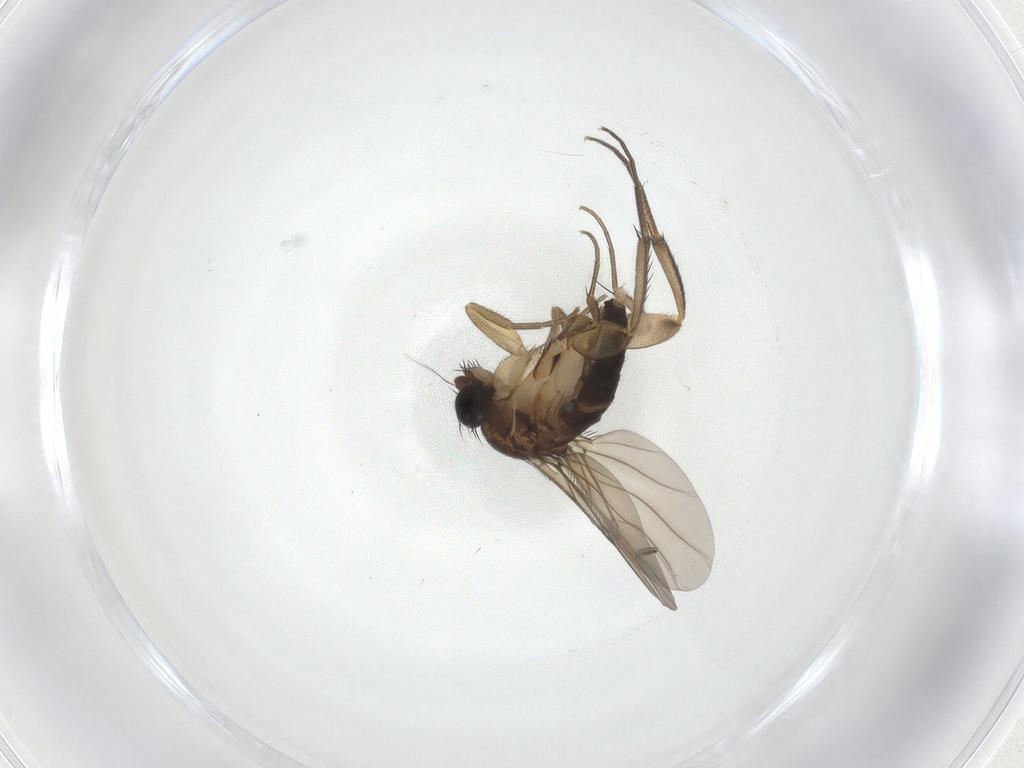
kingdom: Animalia
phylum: Arthropoda
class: Insecta
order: Diptera
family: Phoridae
